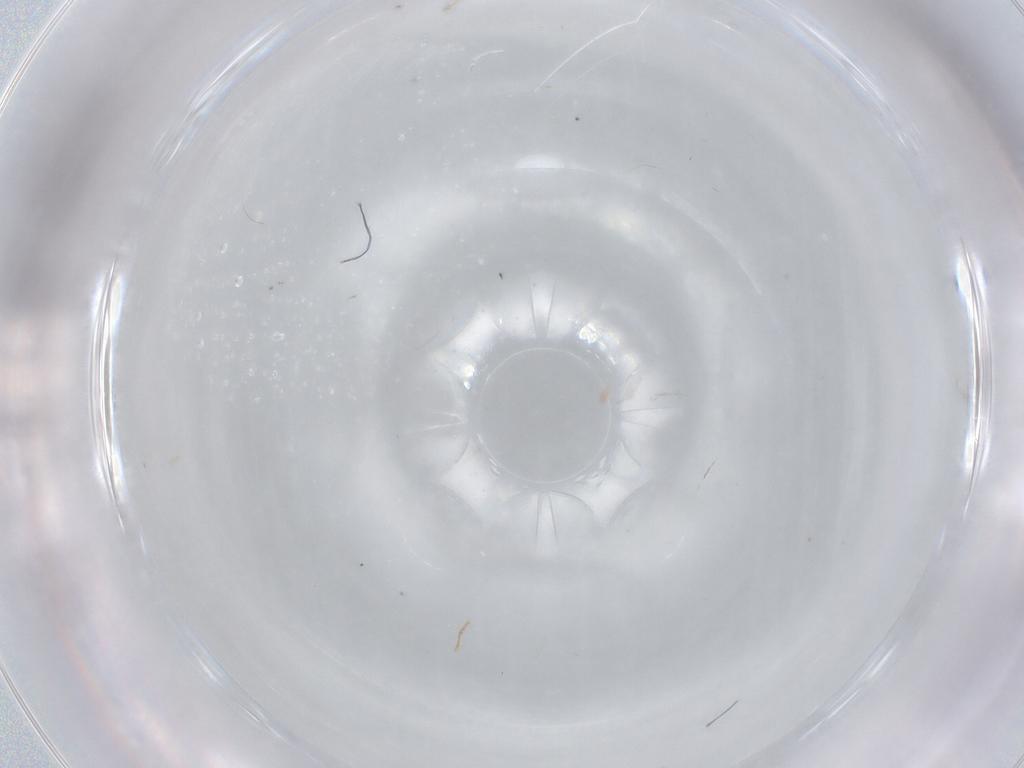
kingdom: Animalia
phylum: Arthropoda
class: Insecta
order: Diptera
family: Sciaridae
